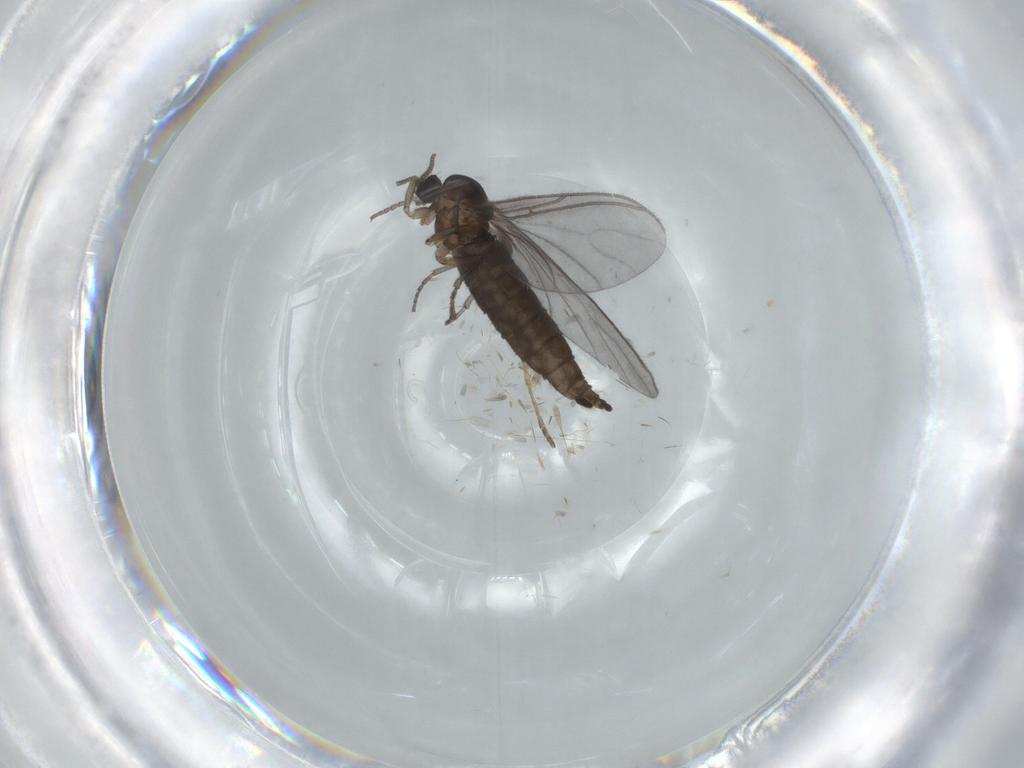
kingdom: Animalia
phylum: Arthropoda
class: Insecta
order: Diptera
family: Sciaridae
